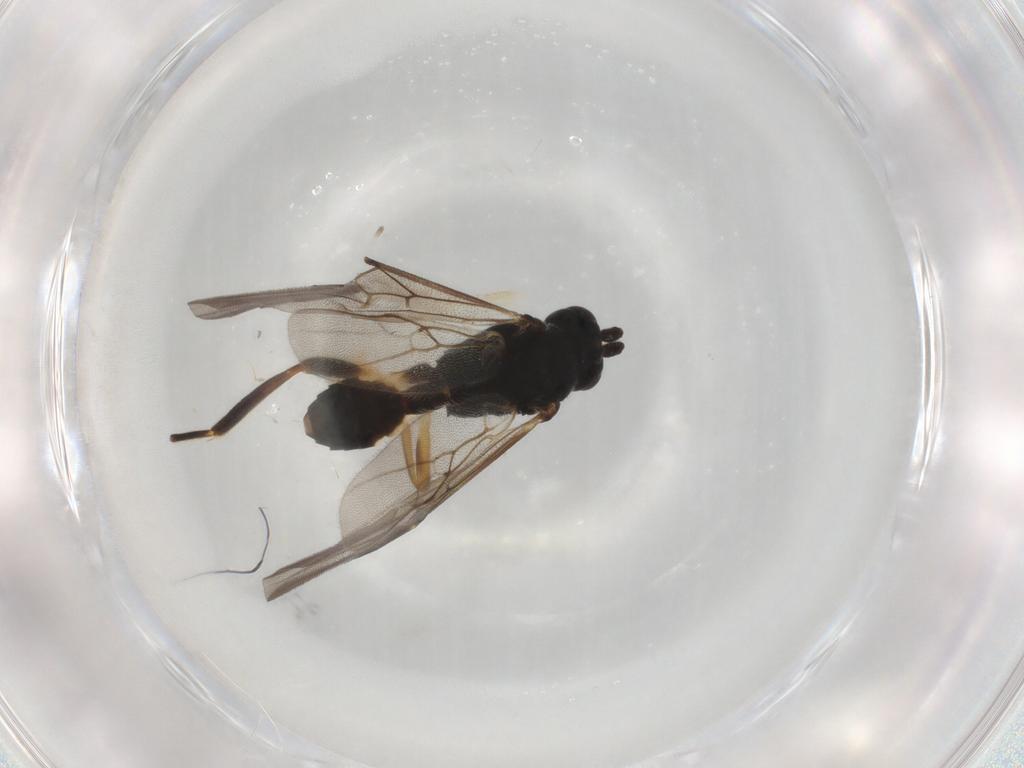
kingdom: Animalia
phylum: Arthropoda
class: Insecta
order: Hymenoptera
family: Braconidae
